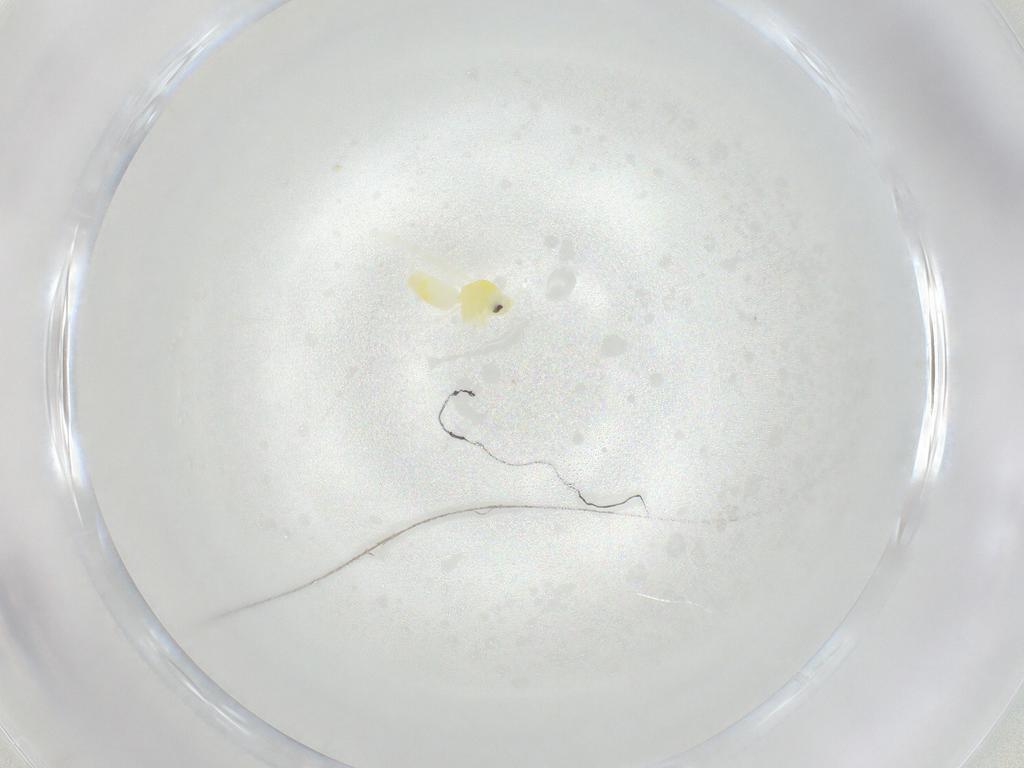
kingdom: Animalia
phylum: Arthropoda
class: Insecta
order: Hemiptera
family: Aleyrodidae
